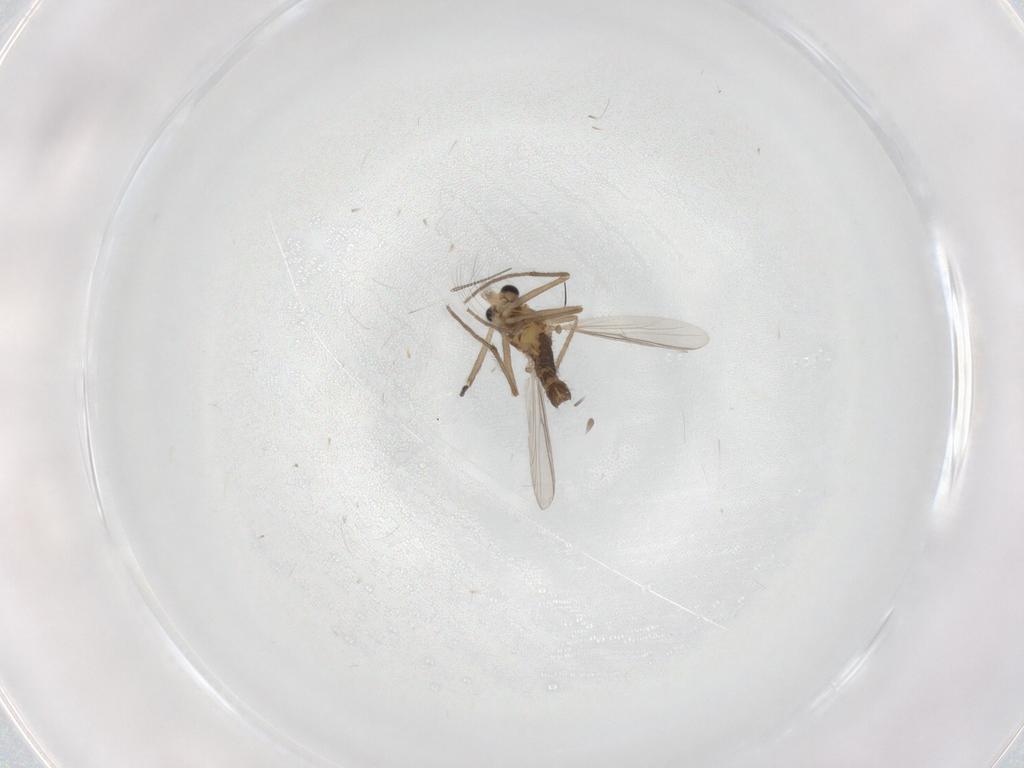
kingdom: Animalia
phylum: Arthropoda
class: Insecta
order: Diptera
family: Chironomidae
